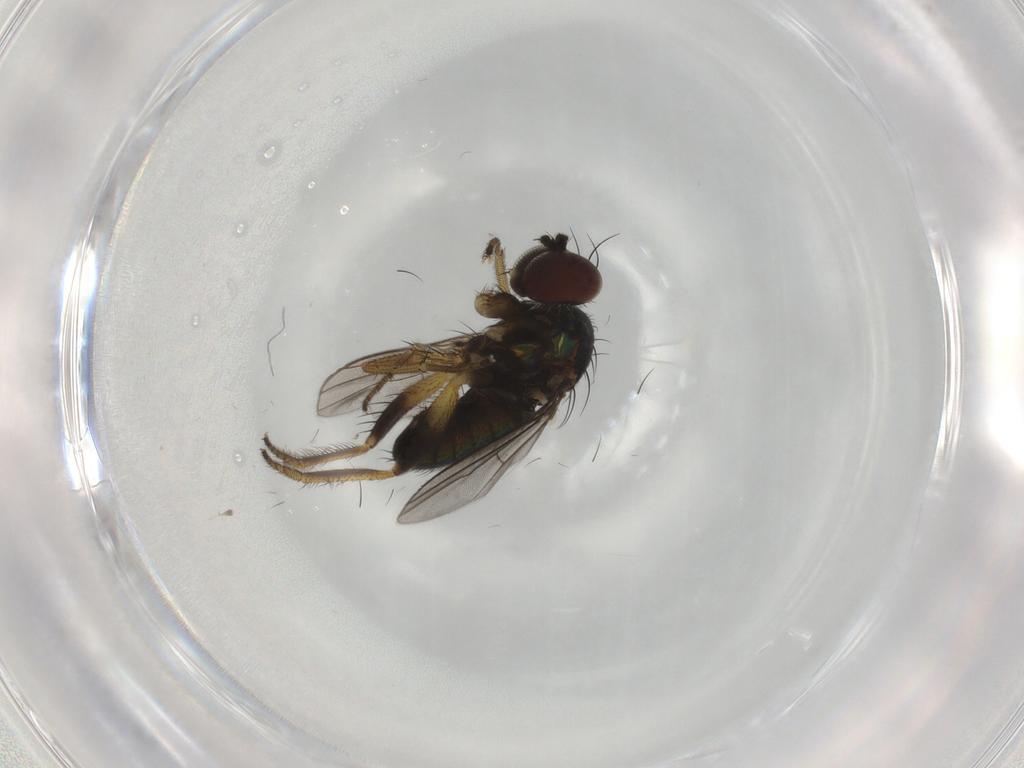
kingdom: Animalia
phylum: Arthropoda
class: Insecta
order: Diptera
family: Dolichopodidae
